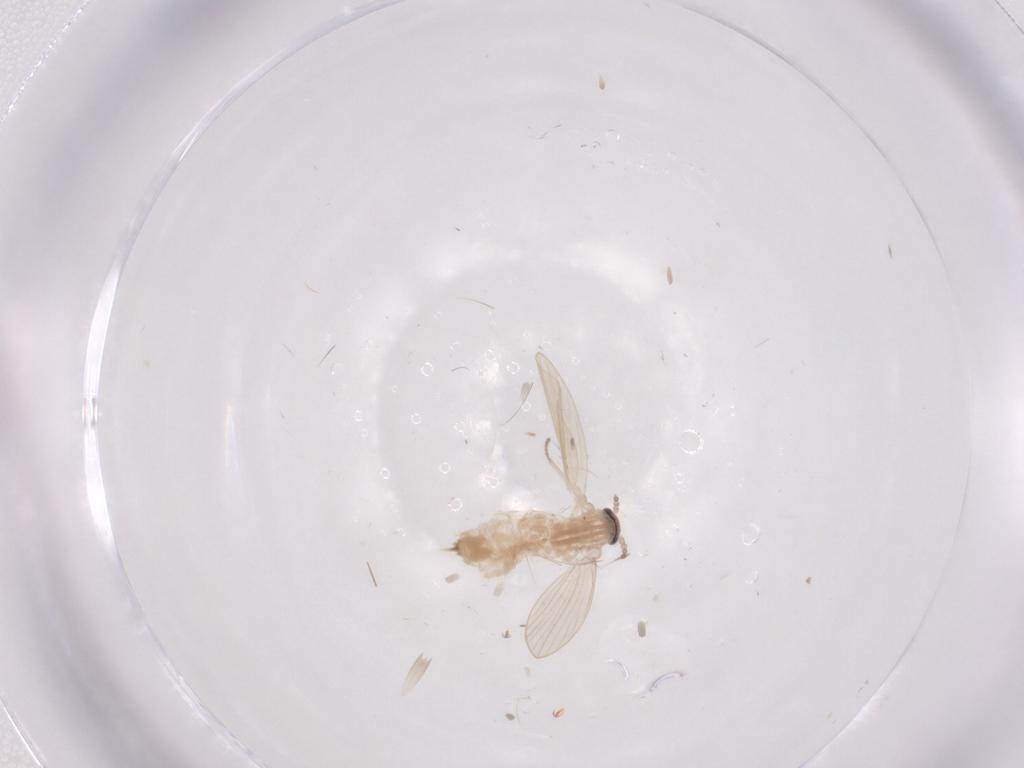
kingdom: Animalia
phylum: Arthropoda
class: Insecta
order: Diptera
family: Psychodidae
